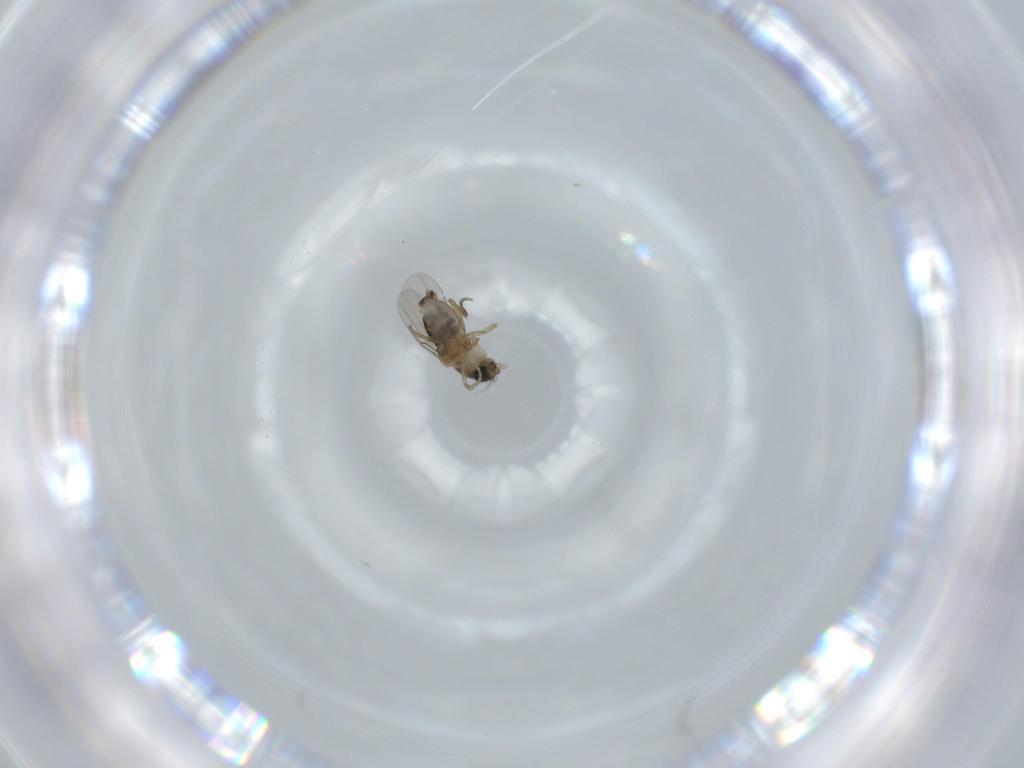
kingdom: Animalia
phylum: Arthropoda
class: Insecta
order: Diptera
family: Phoridae
